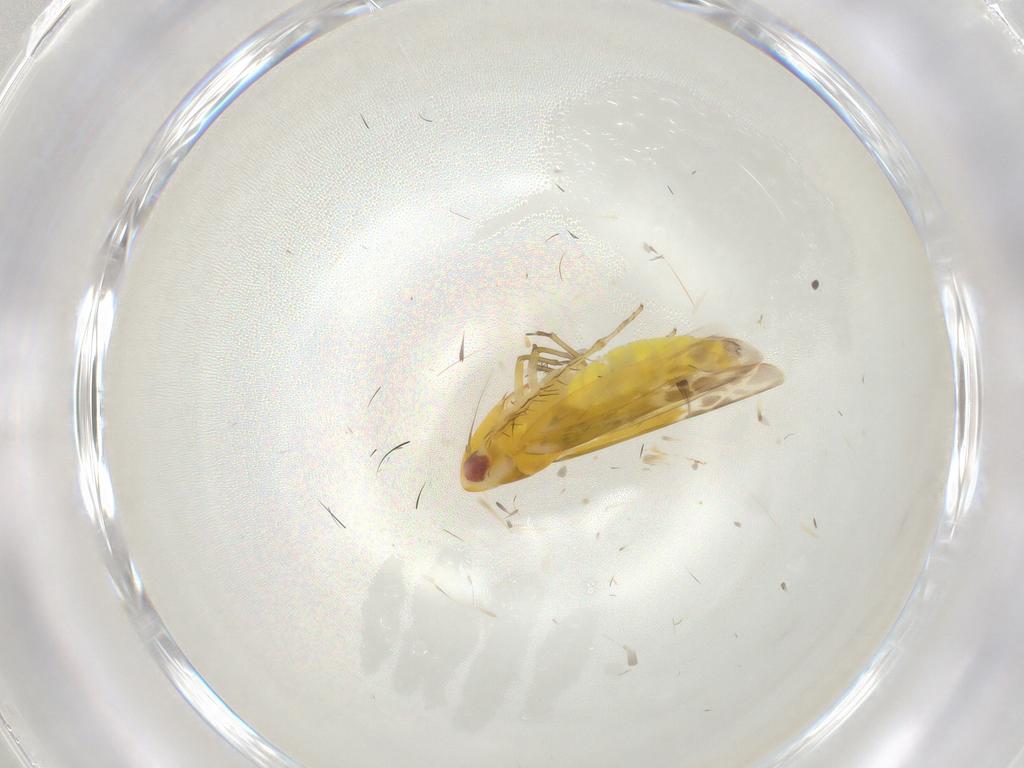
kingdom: Animalia
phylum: Arthropoda
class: Insecta
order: Hemiptera
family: Cicadellidae
